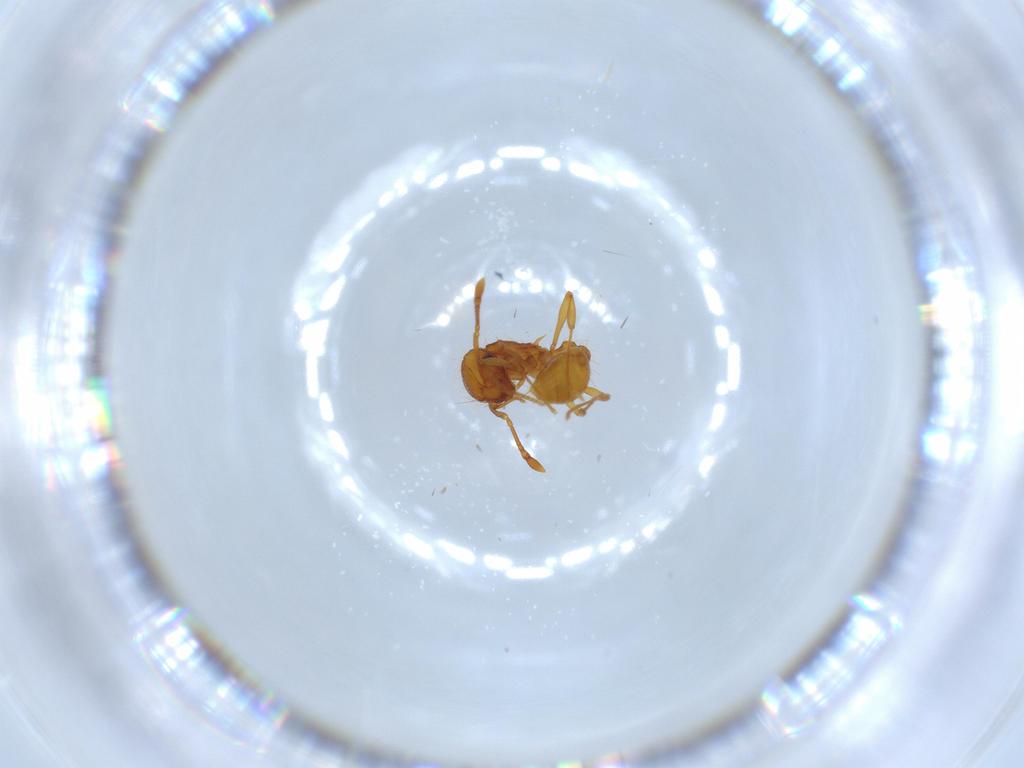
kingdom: Animalia
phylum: Arthropoda
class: Insecta
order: Hymenoptera
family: Formicidae
